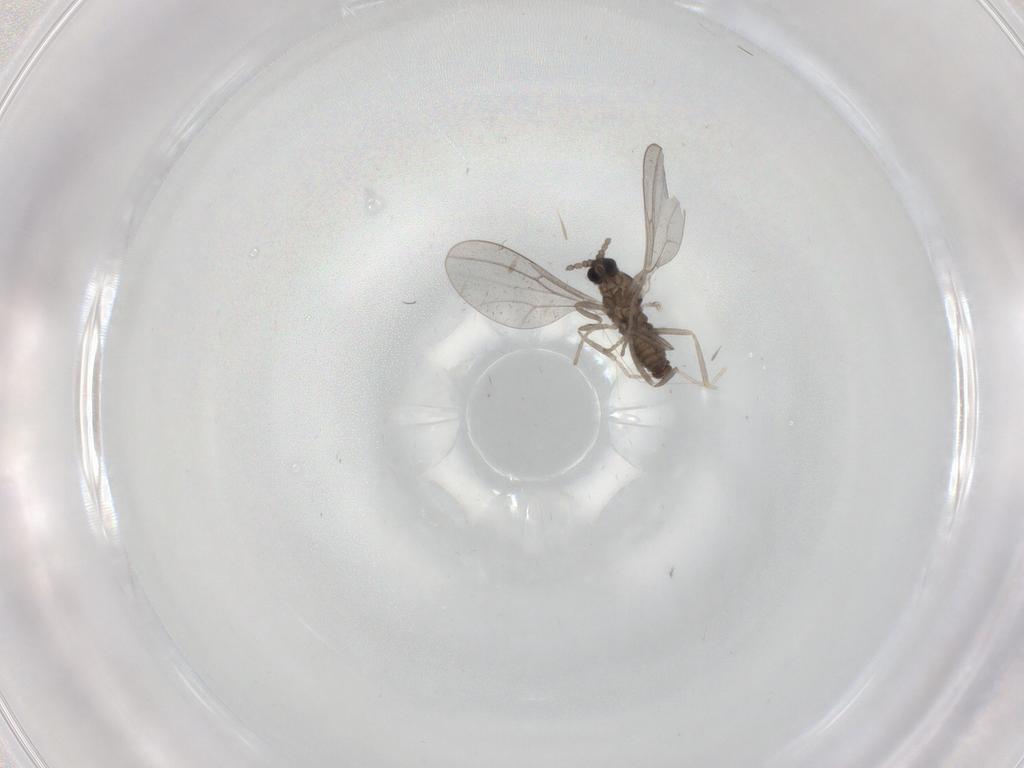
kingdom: Animalia
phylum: Arthropoda
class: Insecta
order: Diptera
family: Cecidomyiidae
